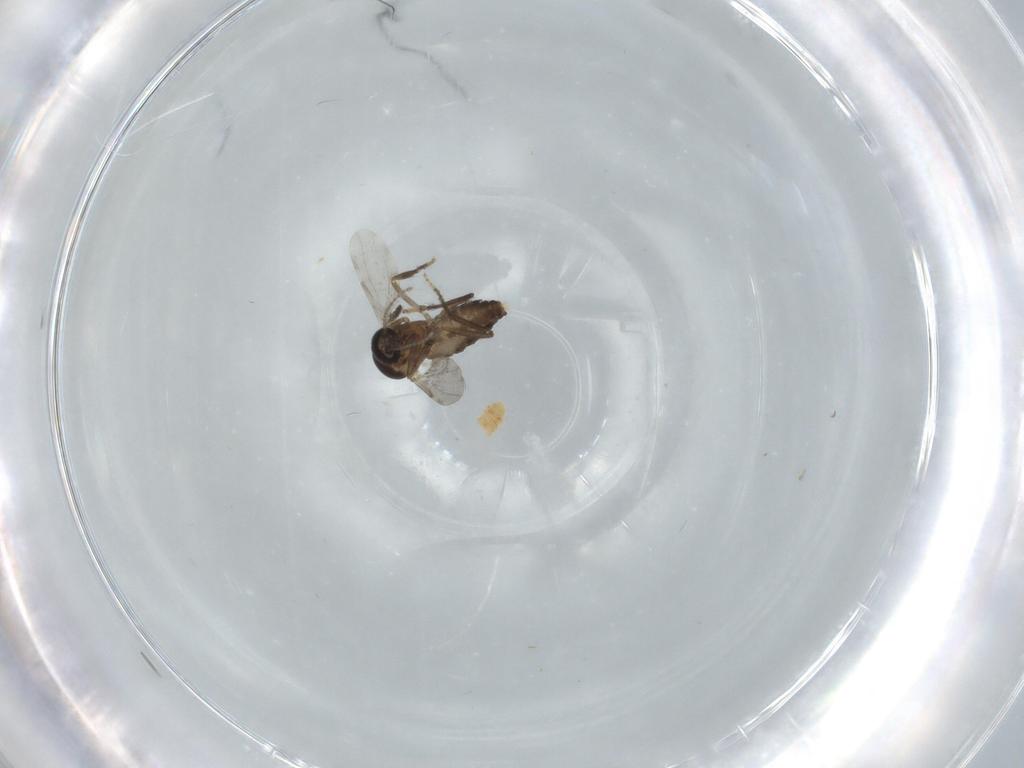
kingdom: Animalia
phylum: Arthropoda
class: Insecta
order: Diptera
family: Ceratopogonidae
